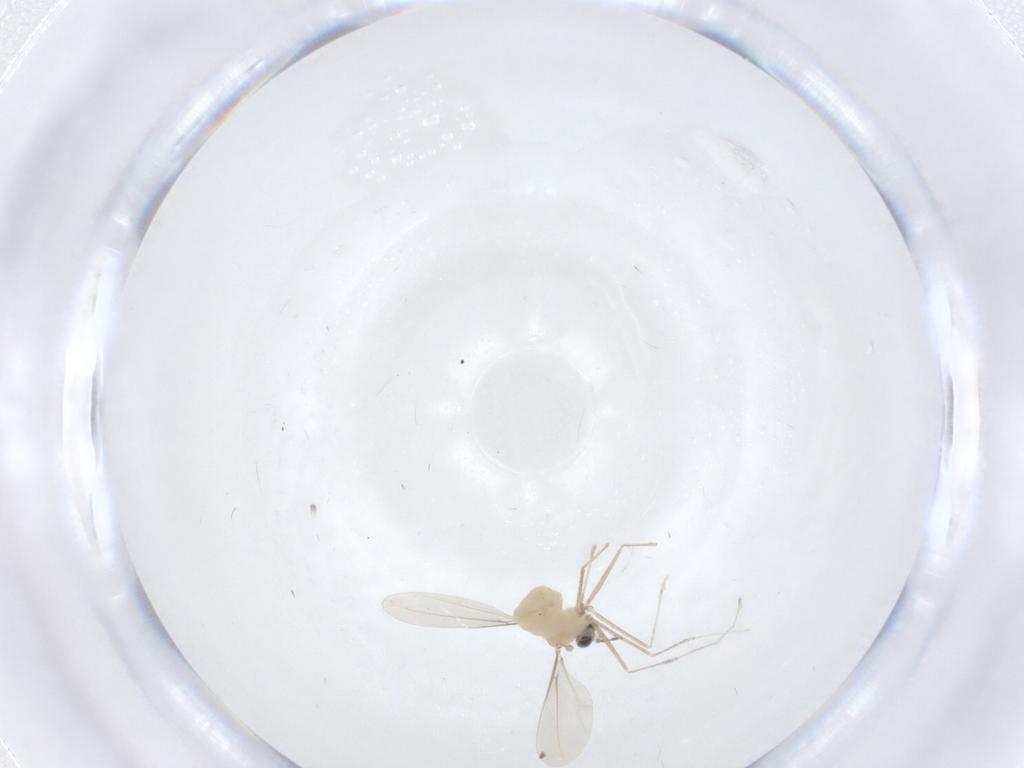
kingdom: Animalia
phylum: Arthropoda
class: Insecta
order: Diptera
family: Cecidomyiidae
